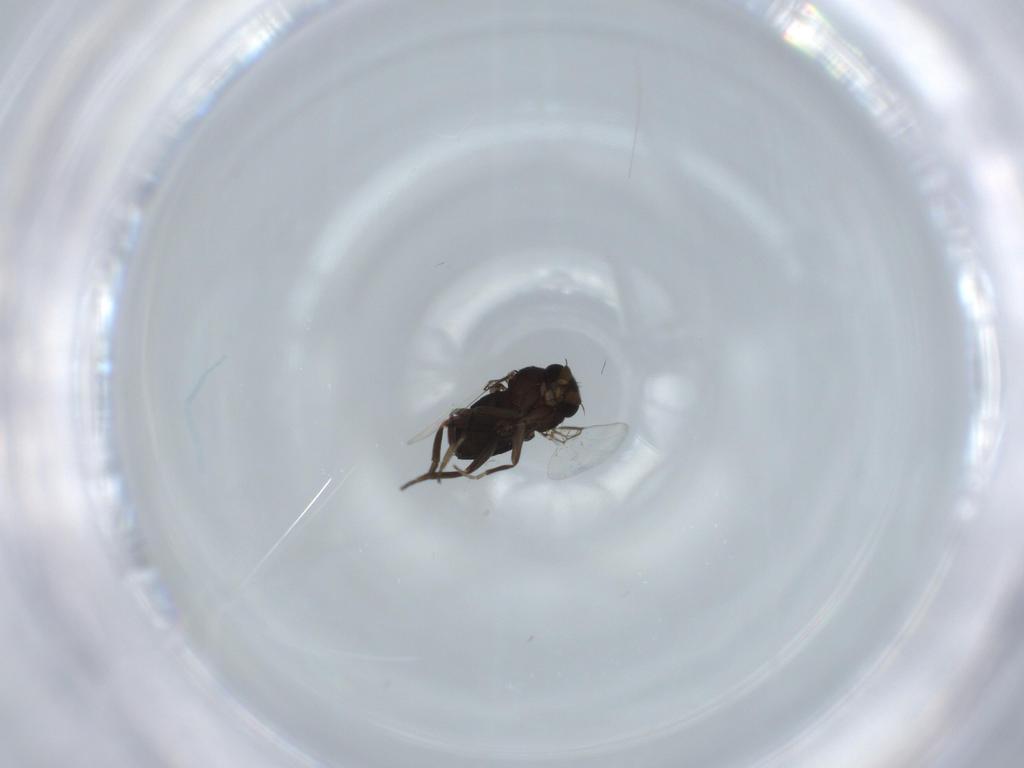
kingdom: Animalia
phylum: Arthropoda
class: Insecta
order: Diptera
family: Phoridae
